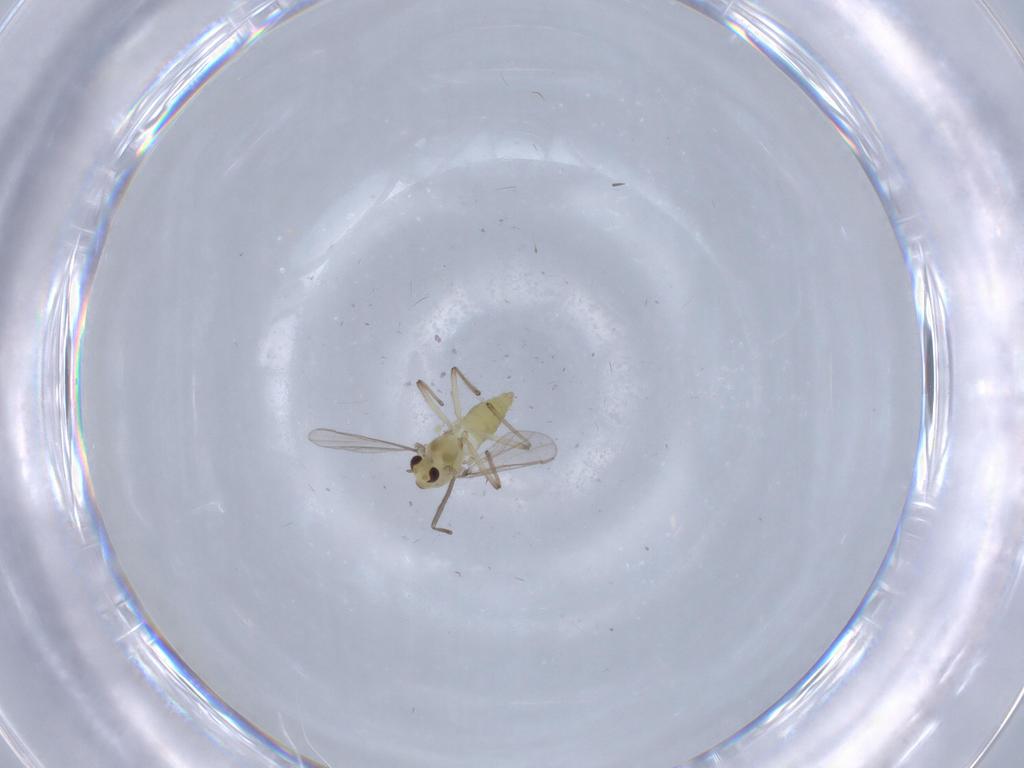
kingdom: Animalia
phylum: Arthropoda
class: Insecta
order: Diptera
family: Chironomidae
